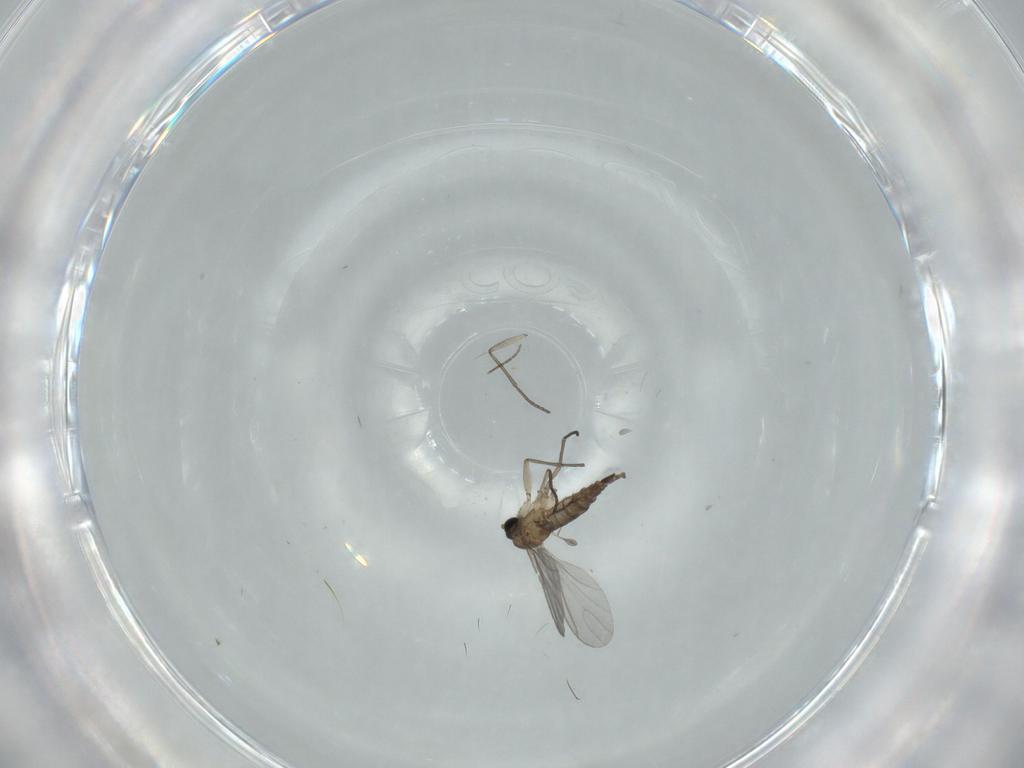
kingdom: Animalia
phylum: Arthropoda
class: Insecta
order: Diptera
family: Sciaridae
